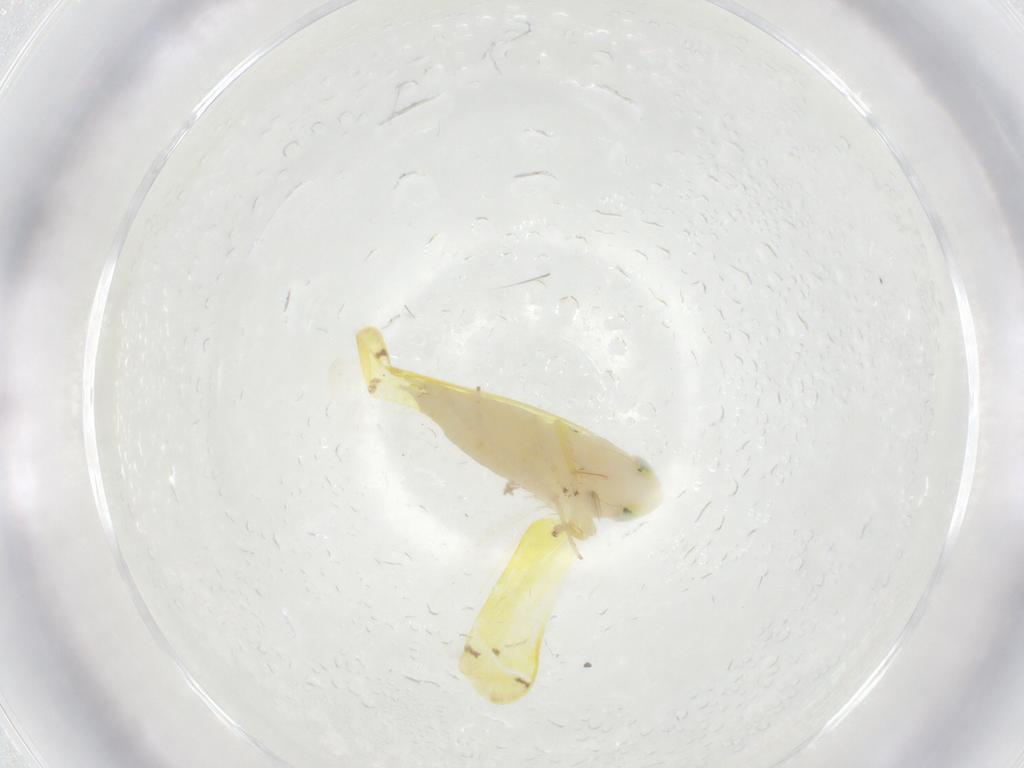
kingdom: Animalia
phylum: Arthropoda
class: Insecta
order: Hemiptera
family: Cicadellidae
